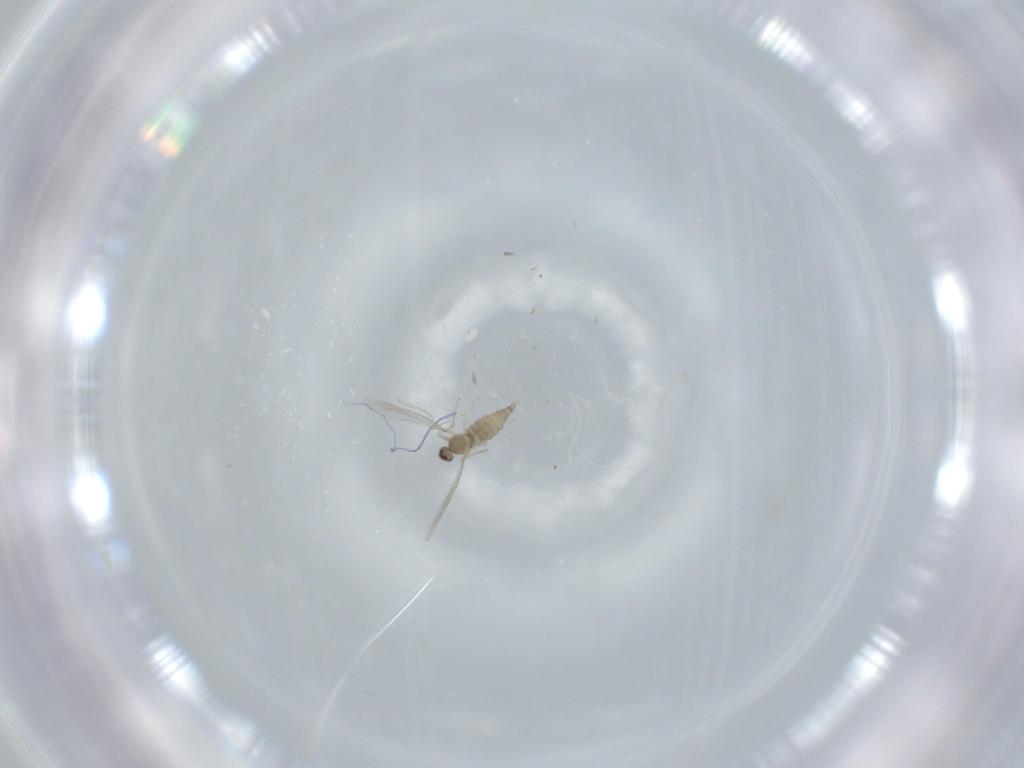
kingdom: Animalia
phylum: Arthropoda
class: Insecta
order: Diptera
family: Cecidomyiidae
